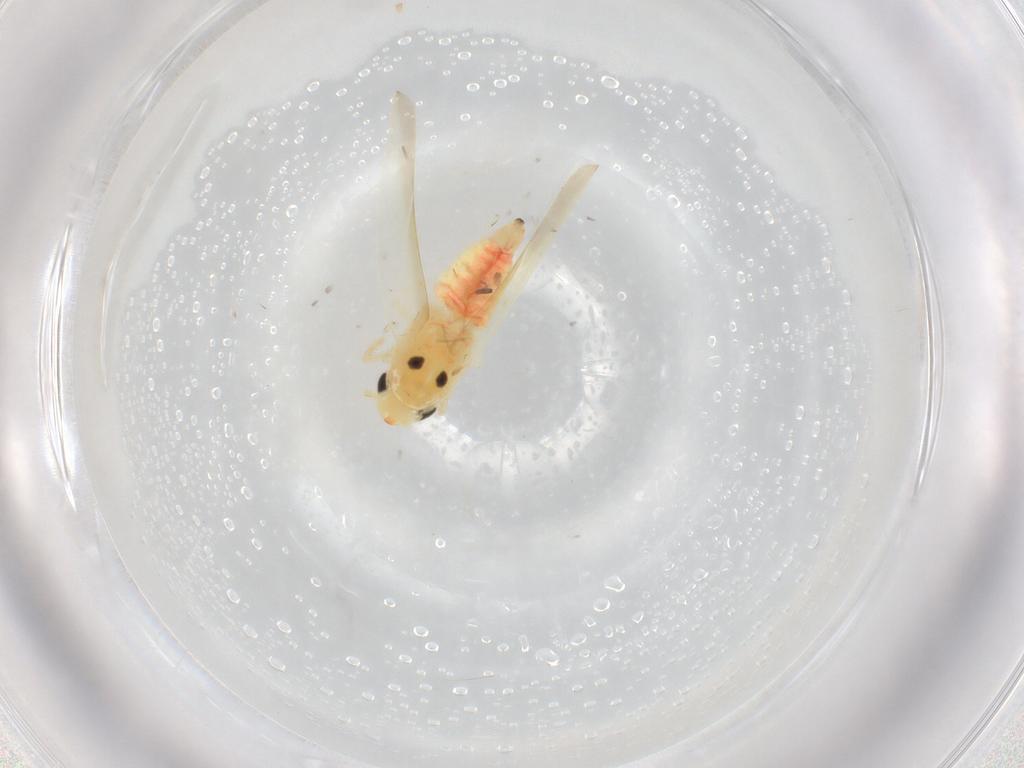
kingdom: Animalia
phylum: Arthropoda
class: Insecta
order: Hemiptera
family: Cicadellidae
